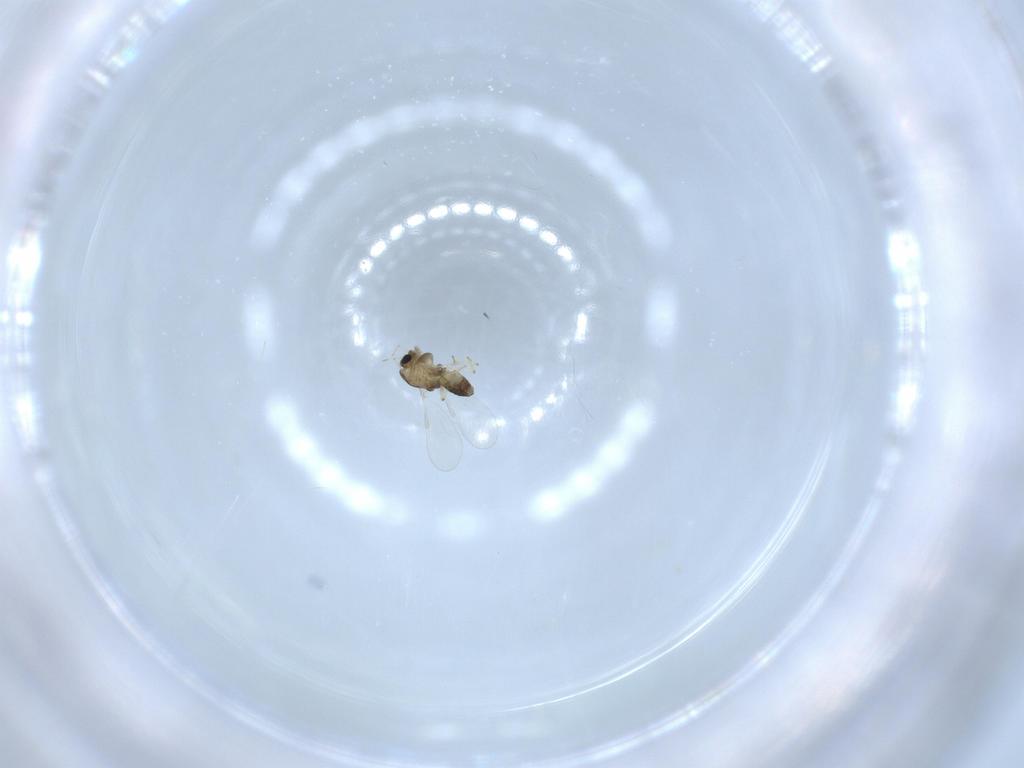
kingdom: Animalia
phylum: Arthropoda
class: Insecta
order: Diptera
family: Chironomidae
